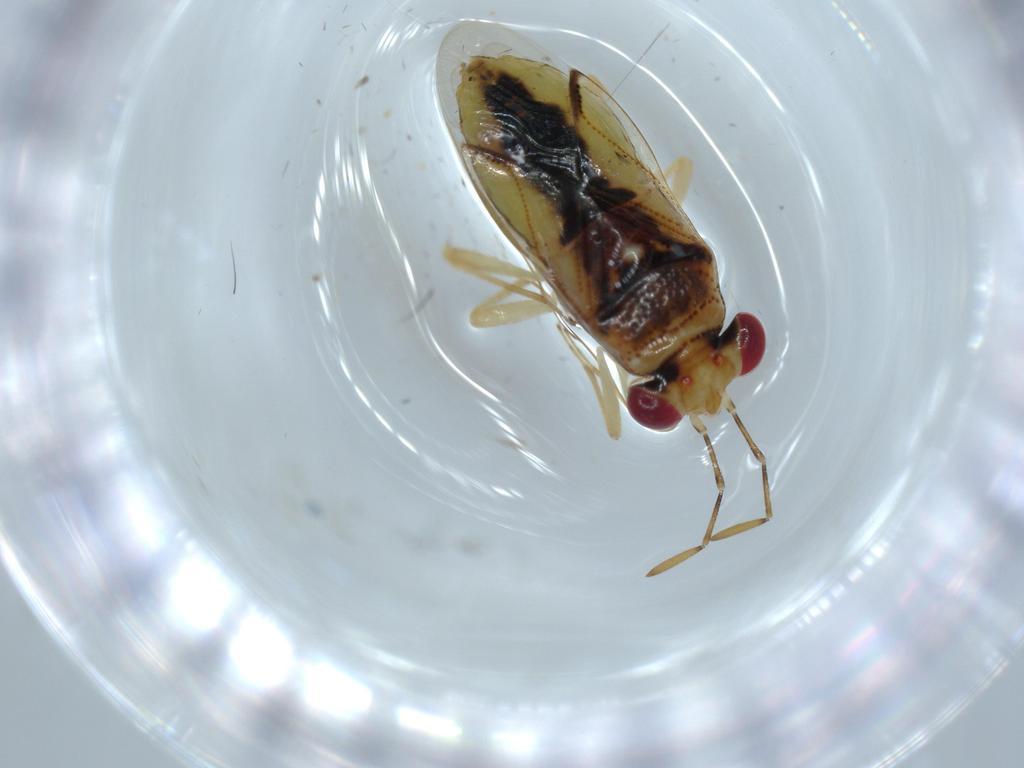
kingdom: Animalia
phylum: Arthropoda
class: Insecta
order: Hemiptera
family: Geocoridae
